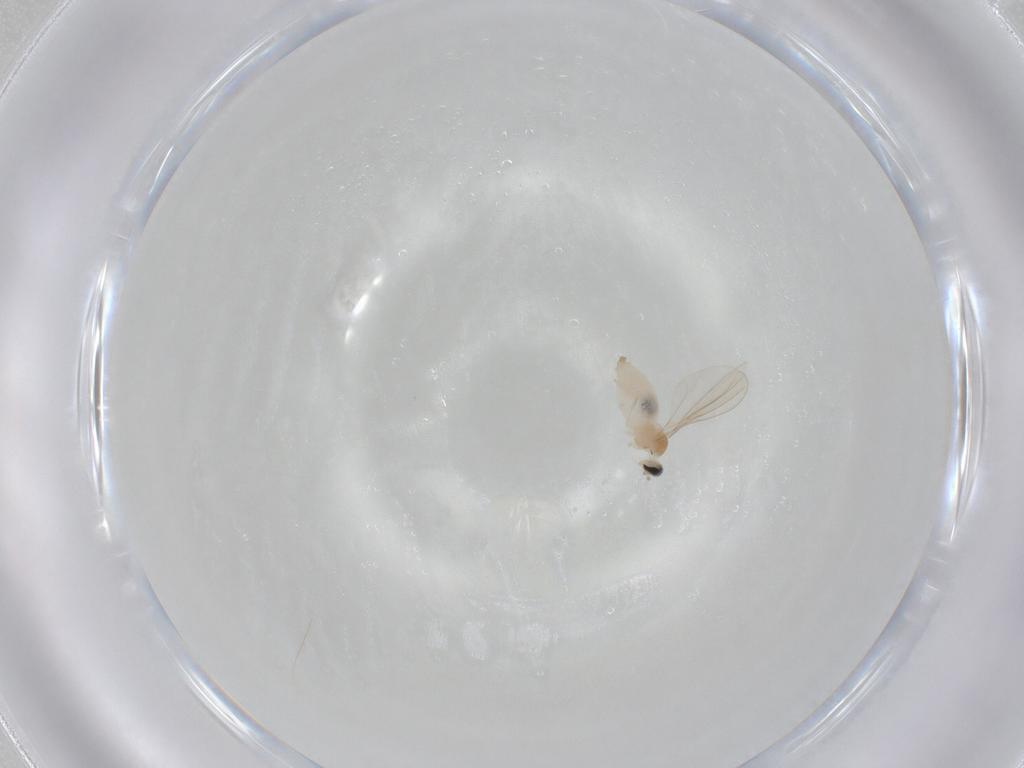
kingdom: Animalia
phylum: Arthropoda
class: Insecta
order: Diptera
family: Cecidomyiidae
